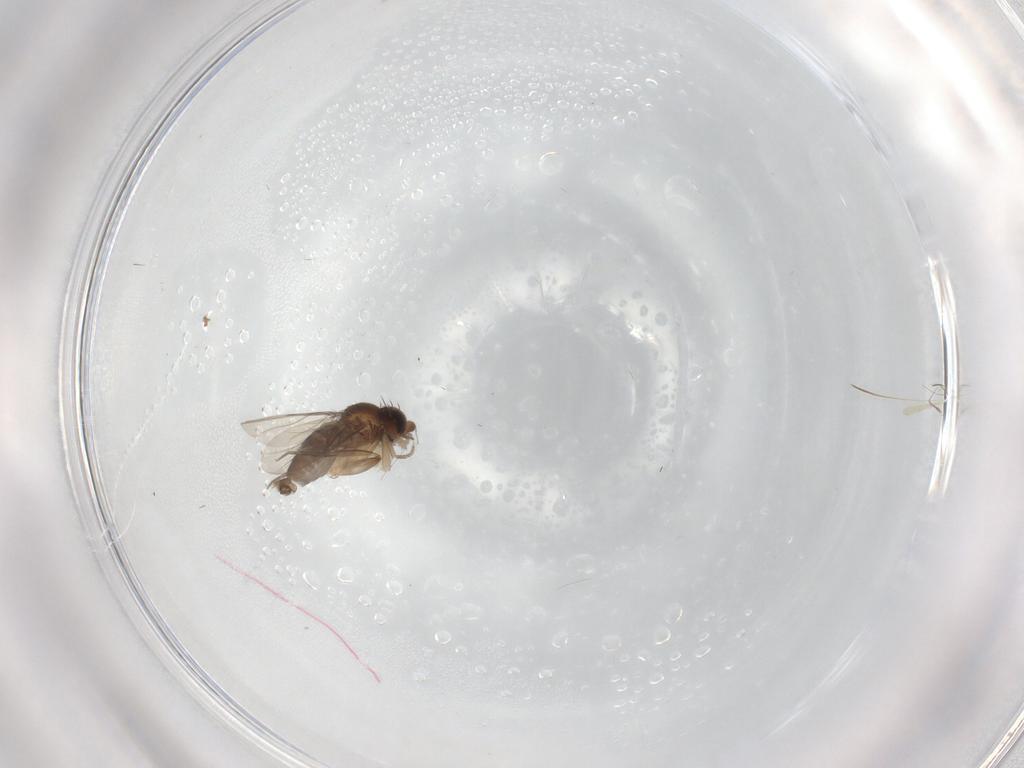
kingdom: Animalia
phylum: Arthropoda
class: Insecta
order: Diptera
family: Phoridae
